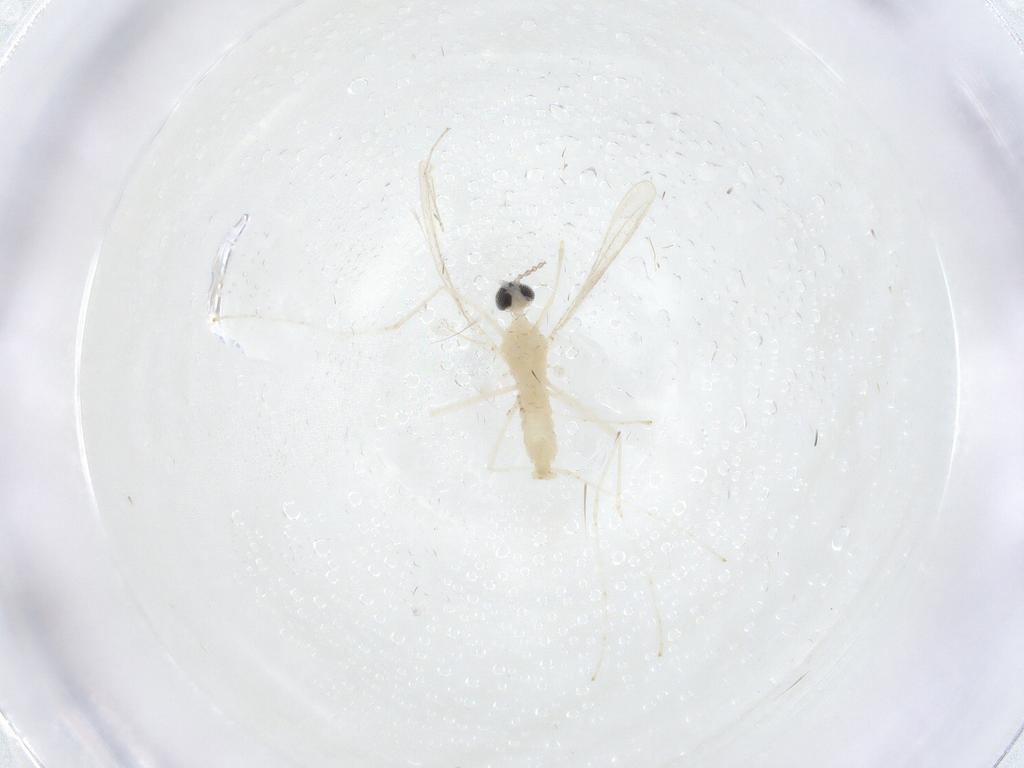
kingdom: Animalia
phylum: Arthropoda
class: Insecta
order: Diptera
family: Cecidomyiidae
